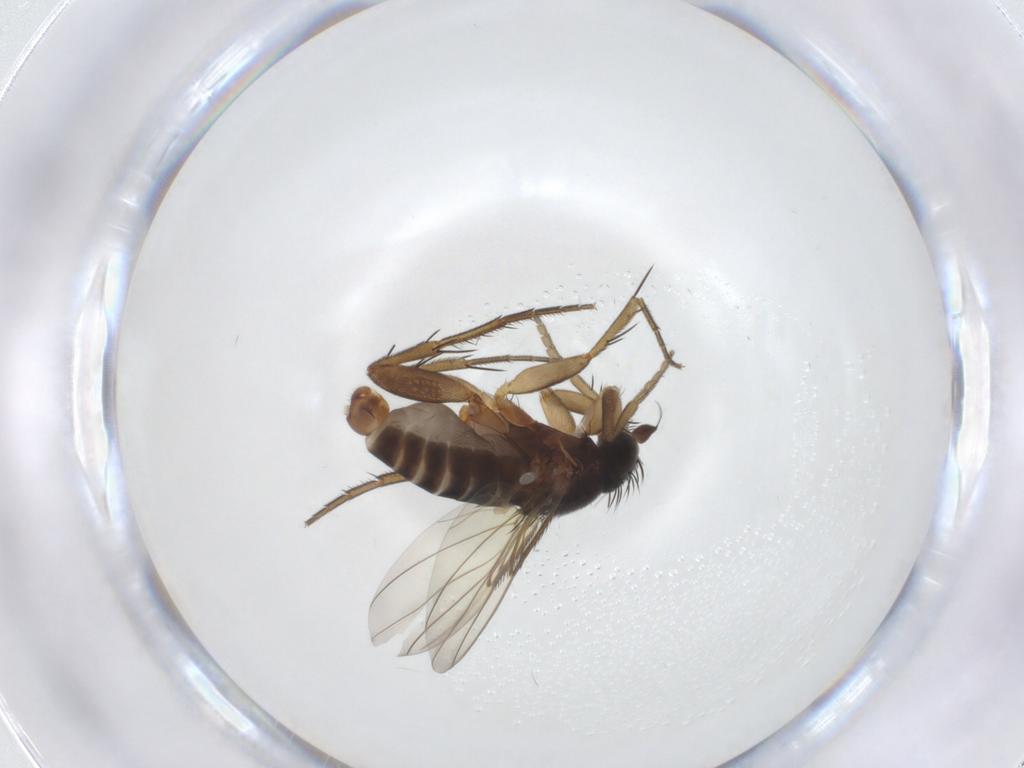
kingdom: Animalia
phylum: Arthropoda
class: Insecta
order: Diptera
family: Phoridae
